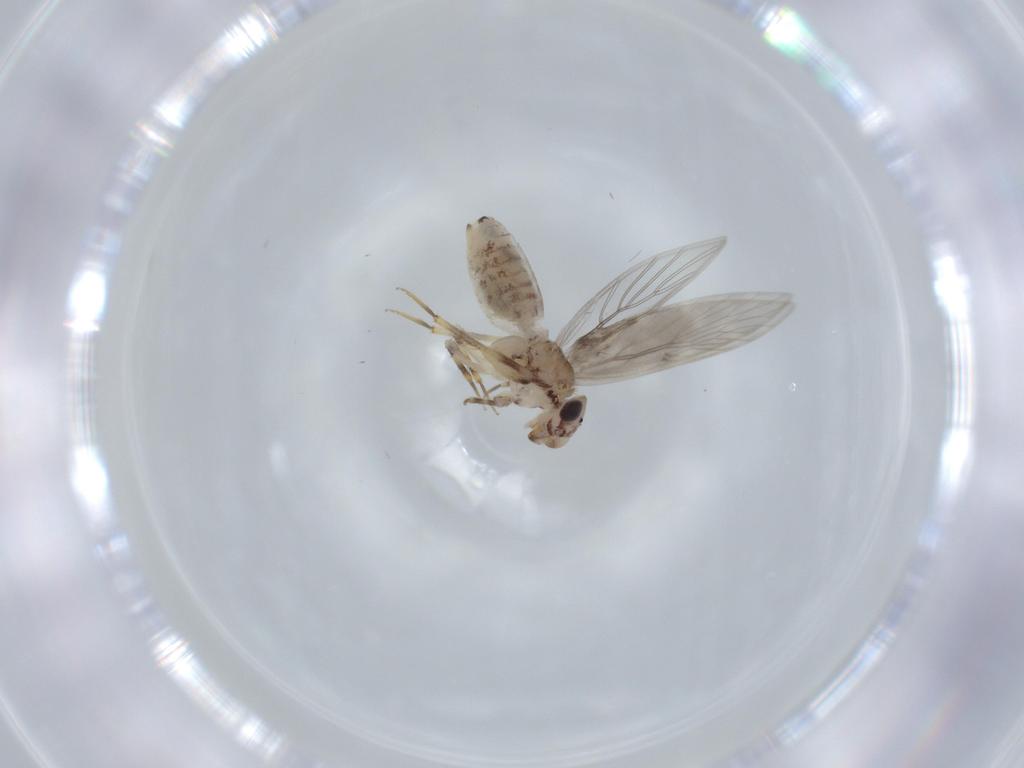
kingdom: Animalia
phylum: Arthropoda
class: Insecta
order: Psocodea
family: Lepidopsocidae
